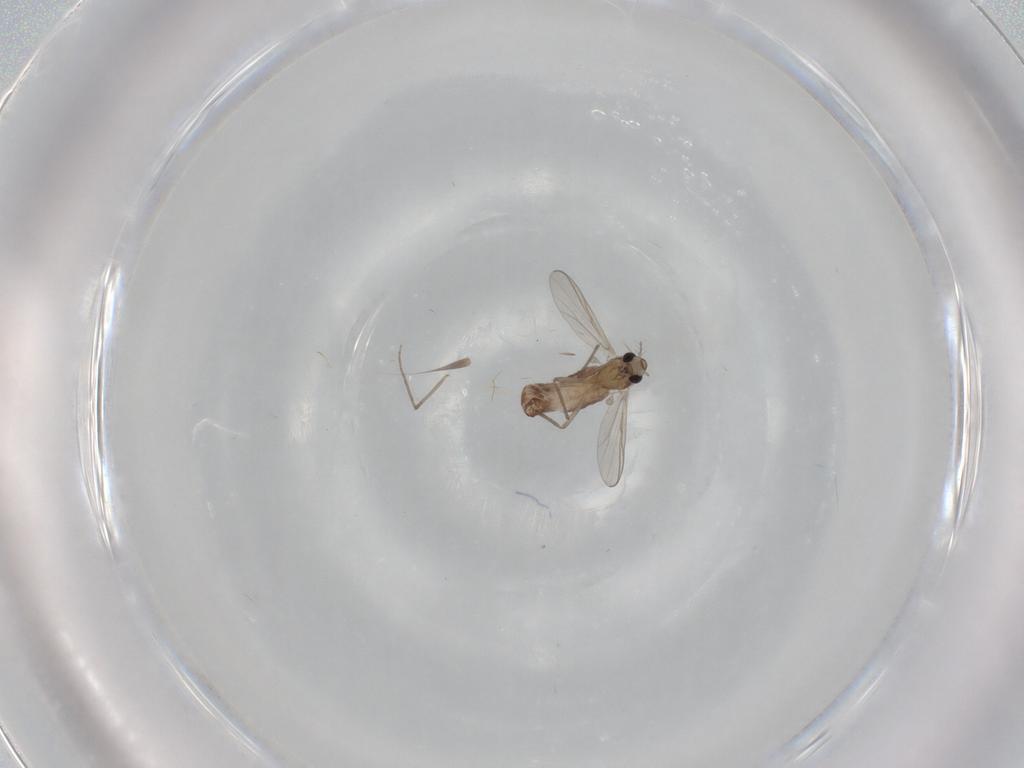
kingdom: Animalia
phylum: Arthropoda
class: Insecta
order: Diptera
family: Chironomidae
